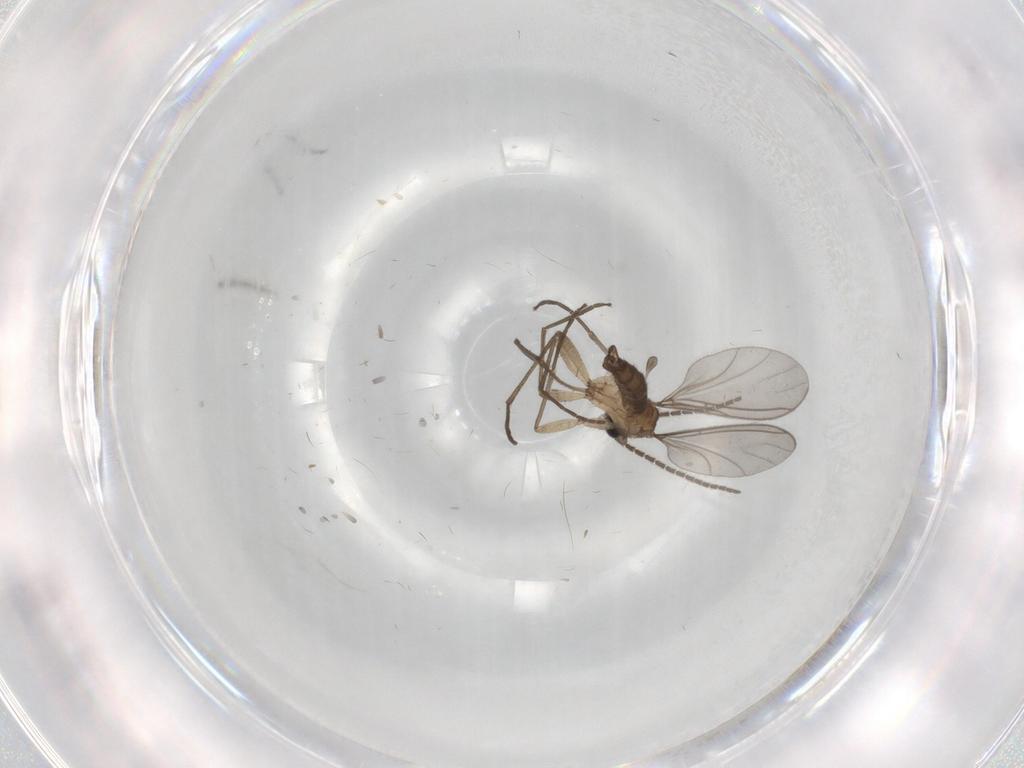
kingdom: Animalia
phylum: Arthropoda
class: Insecta
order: Diptera
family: Sciaridae
